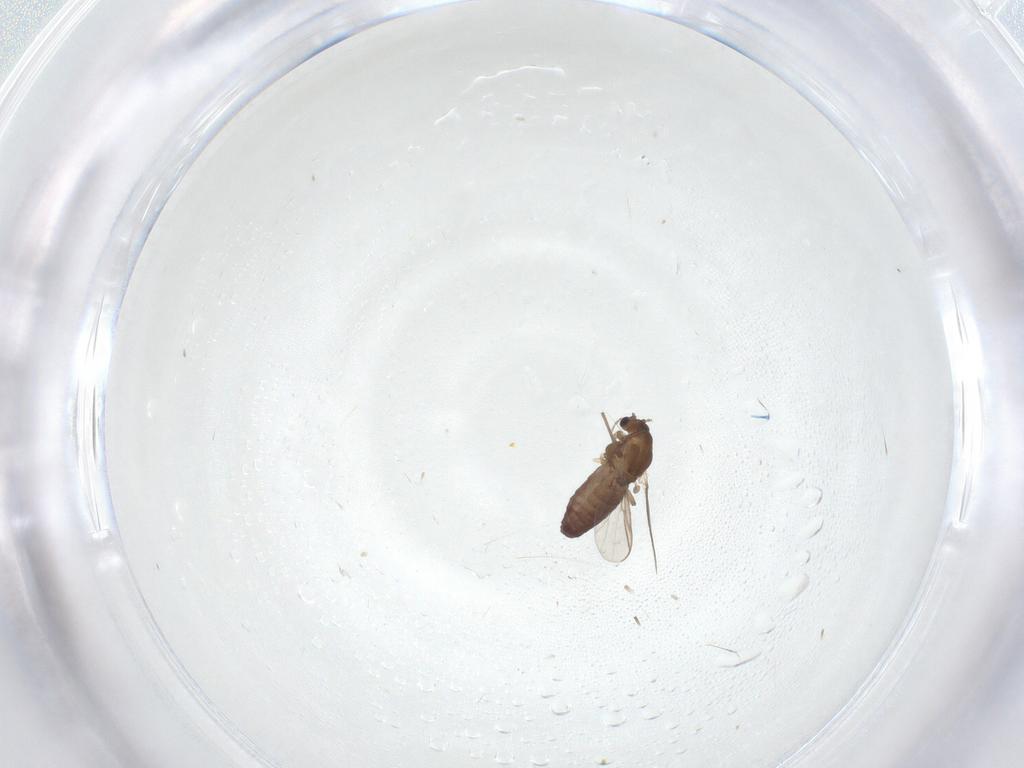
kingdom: Animalia
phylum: Arthropoda
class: Insecta
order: Diptera
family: Chironomidae
